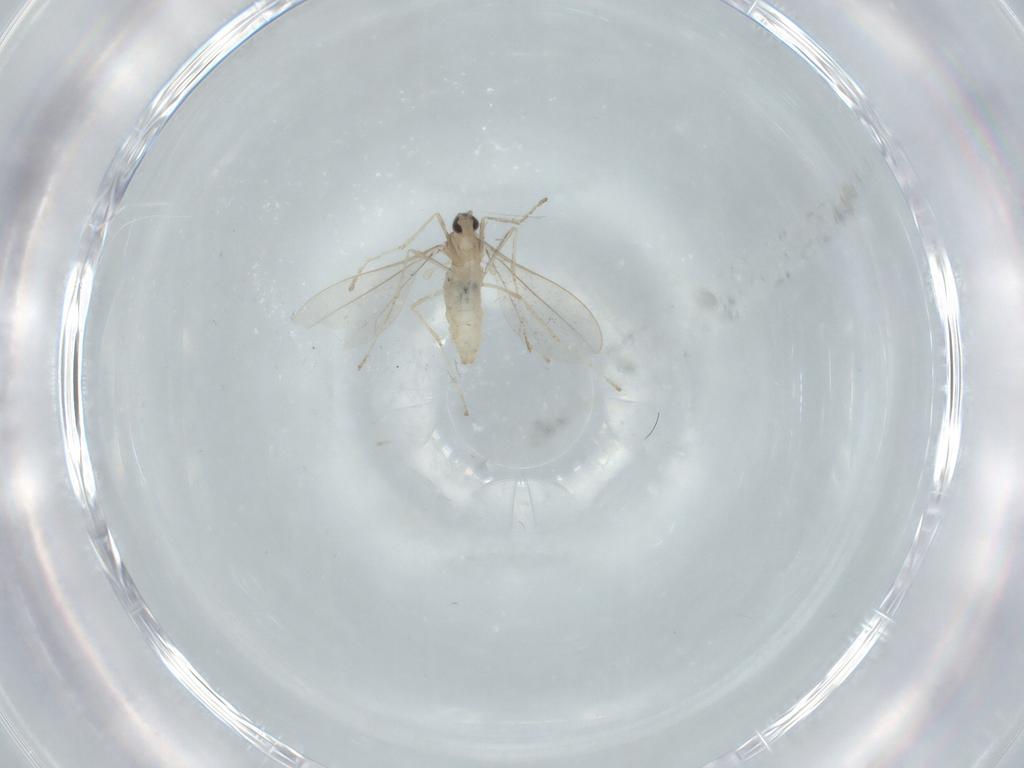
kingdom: Animalia
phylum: Arthropoda
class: Insecta
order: Diptera
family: Cecidomyiidae
